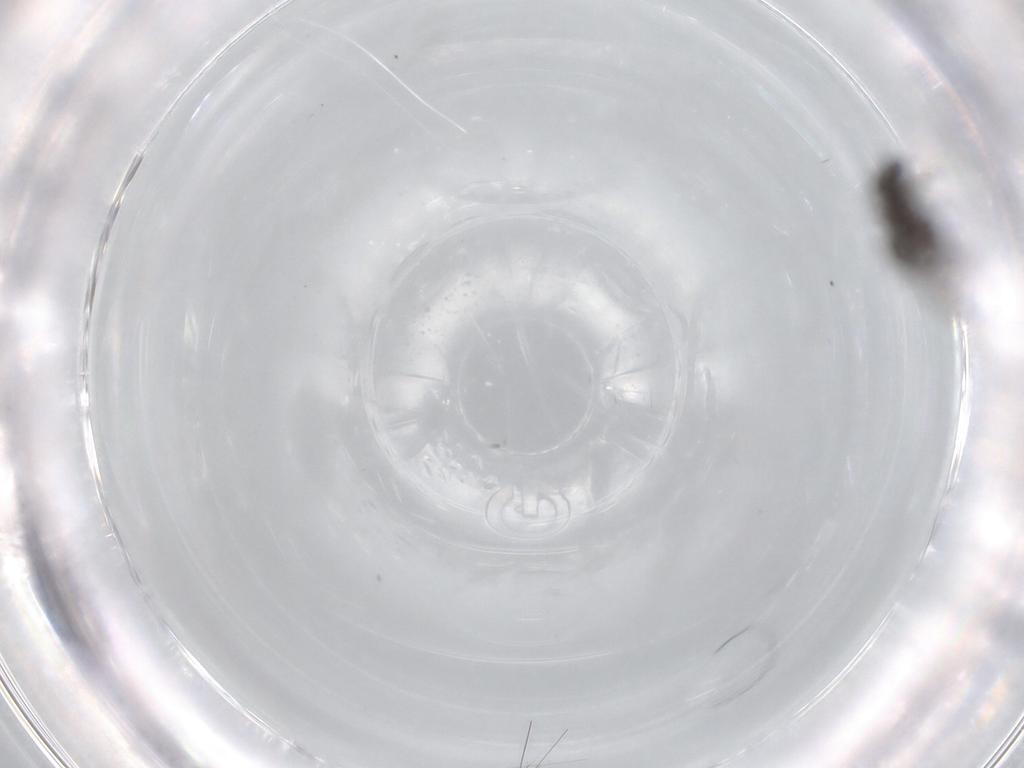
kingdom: Animalia
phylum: Arthropoda
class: Insecta
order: Diptera
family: Phoridae
